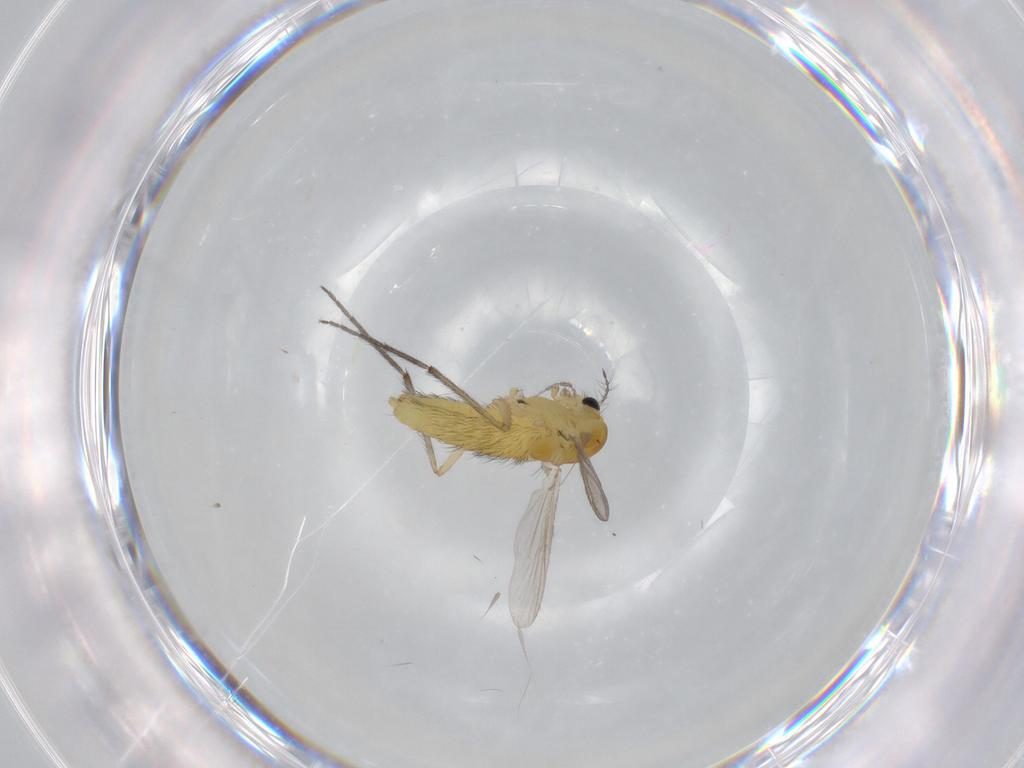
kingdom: Animalia
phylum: Arthropoda
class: Insecta
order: Diptera
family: Chironomidae
